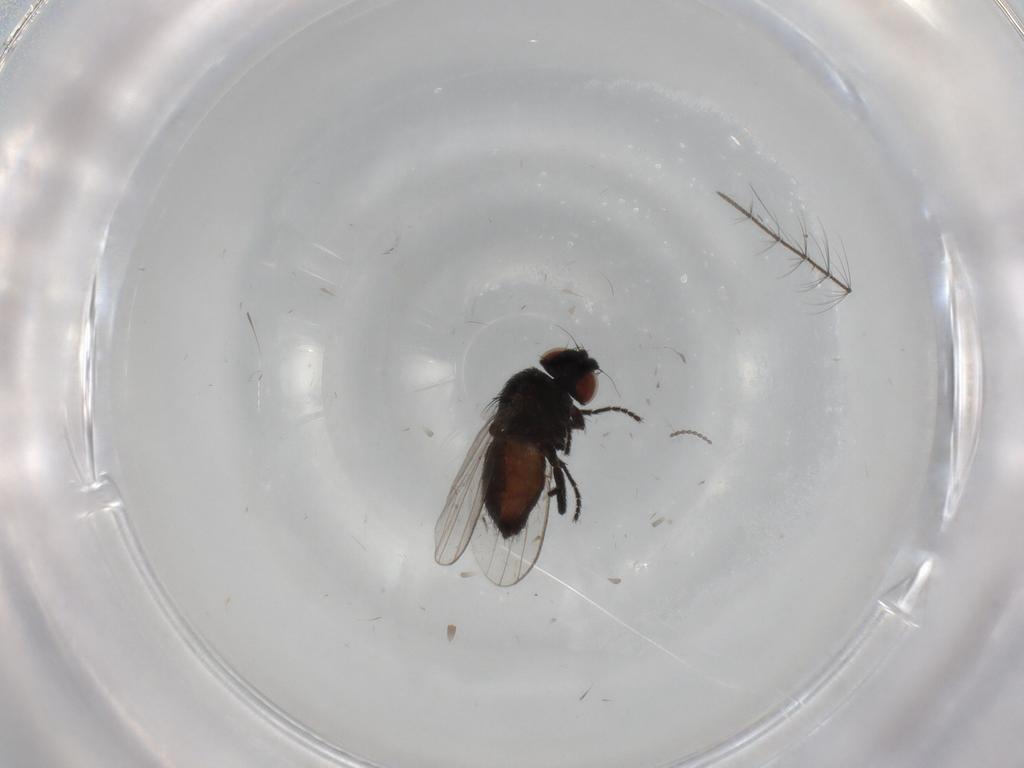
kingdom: Animalia
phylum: Arthropoda
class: Insecta
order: Diptera
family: Milichiidae
